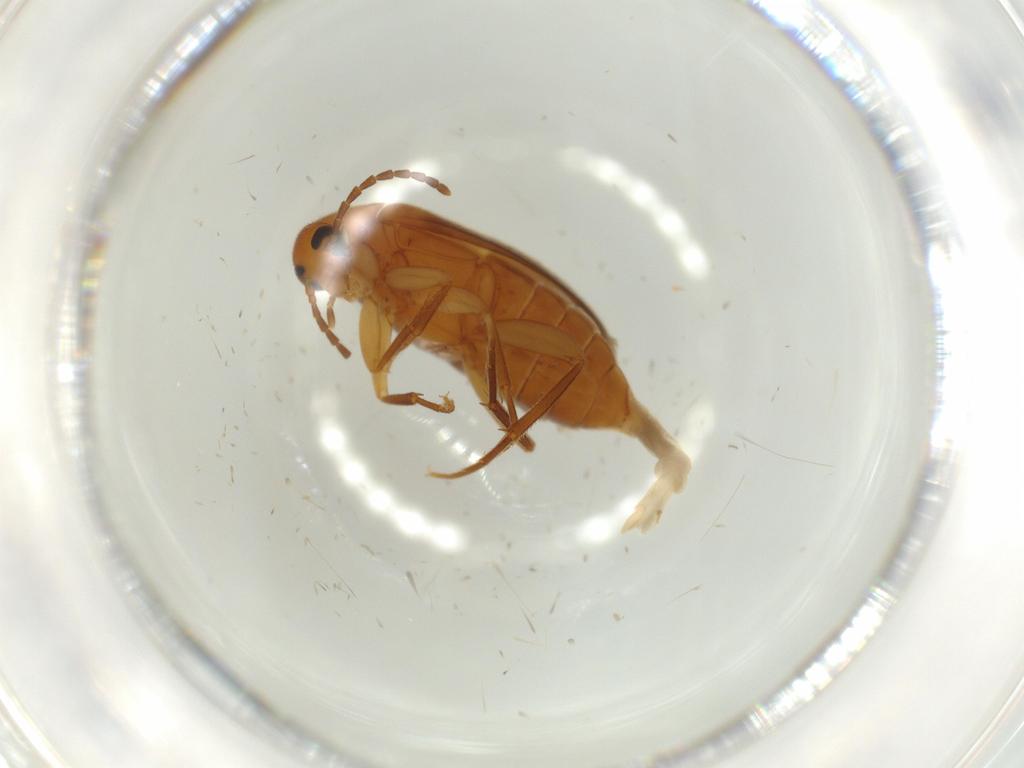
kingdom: Animalia
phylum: Arthropoda
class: Insecta
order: Coleoptera
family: Scraptiidae
